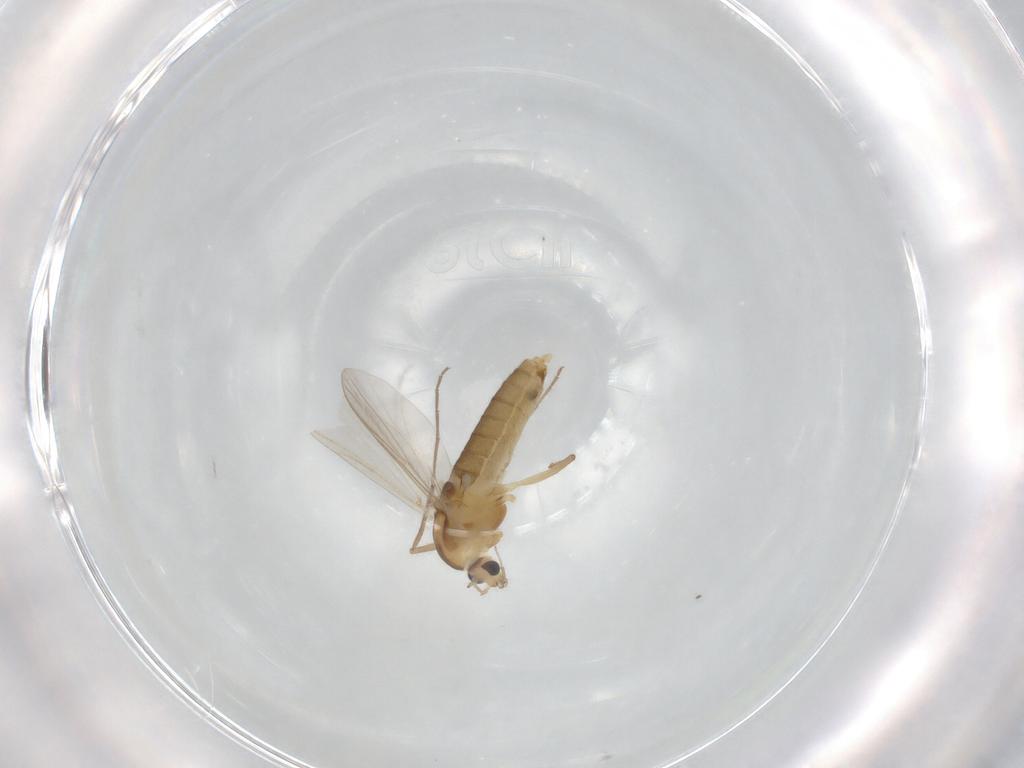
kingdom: Animalia
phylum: Arthropoda
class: Insecta
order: Diptera
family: Chironomidae
